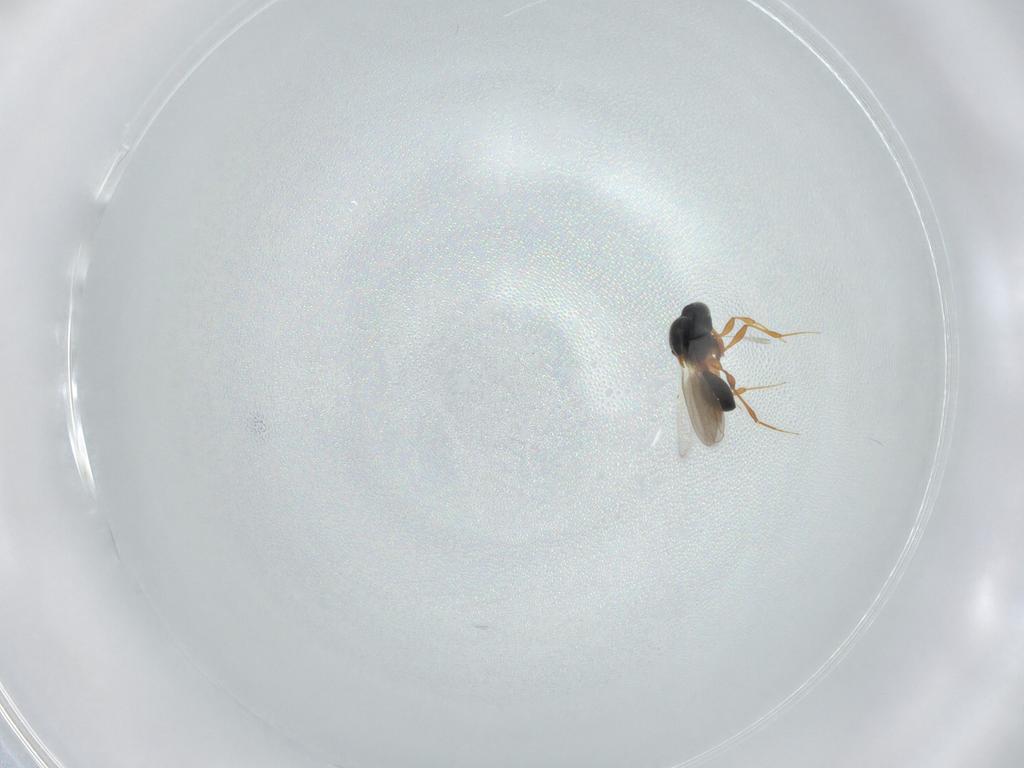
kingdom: Animalia
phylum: Arthropoda
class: Insecta
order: Hymenoptera
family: Platygastridae
